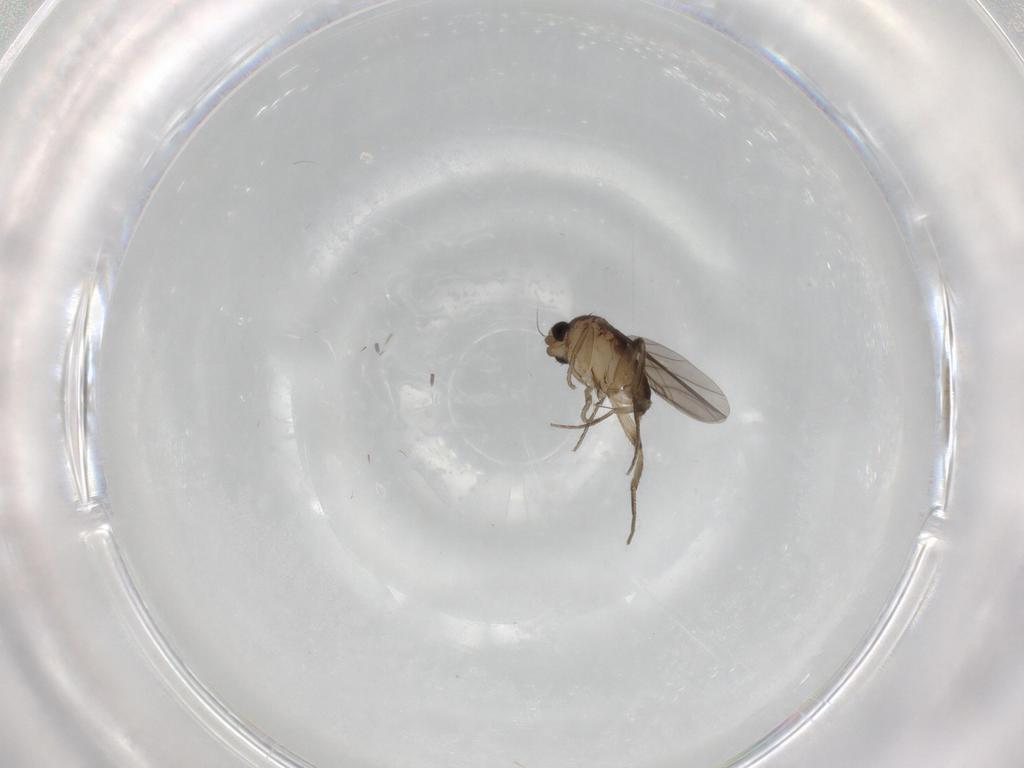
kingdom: Animalia
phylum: Arthropoda
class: Insecta
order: Diptera
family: Phoridae
